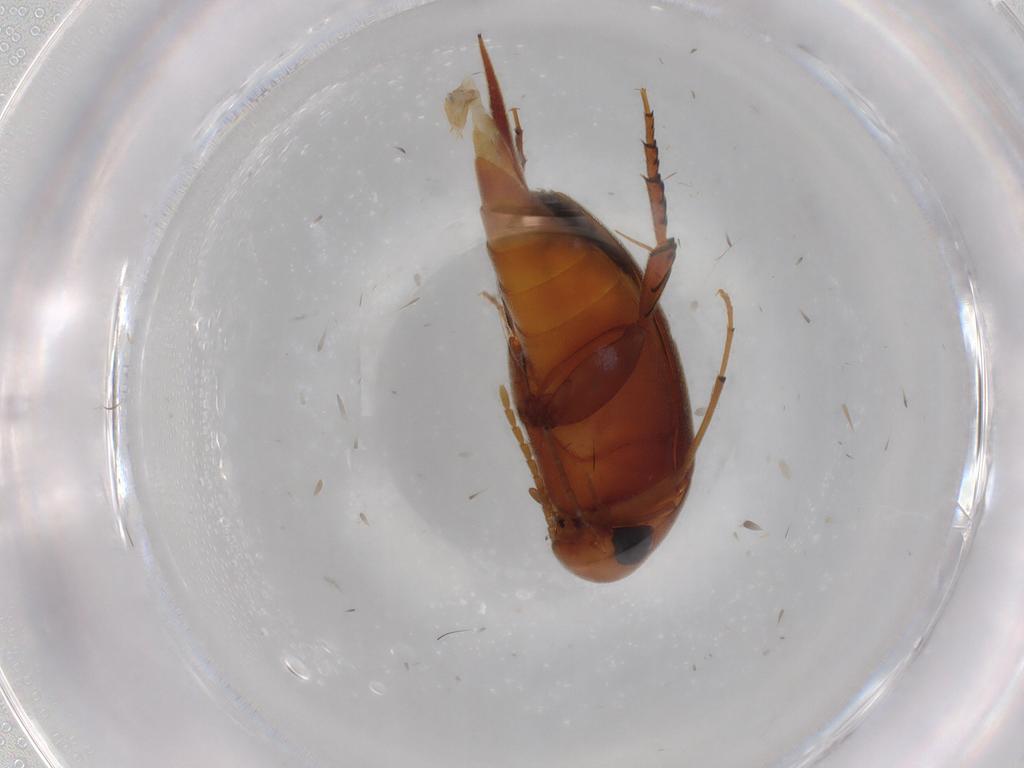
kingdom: Animalia
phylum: Arthropoda
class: Insecta
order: Coleoptera
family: Mordellidae
